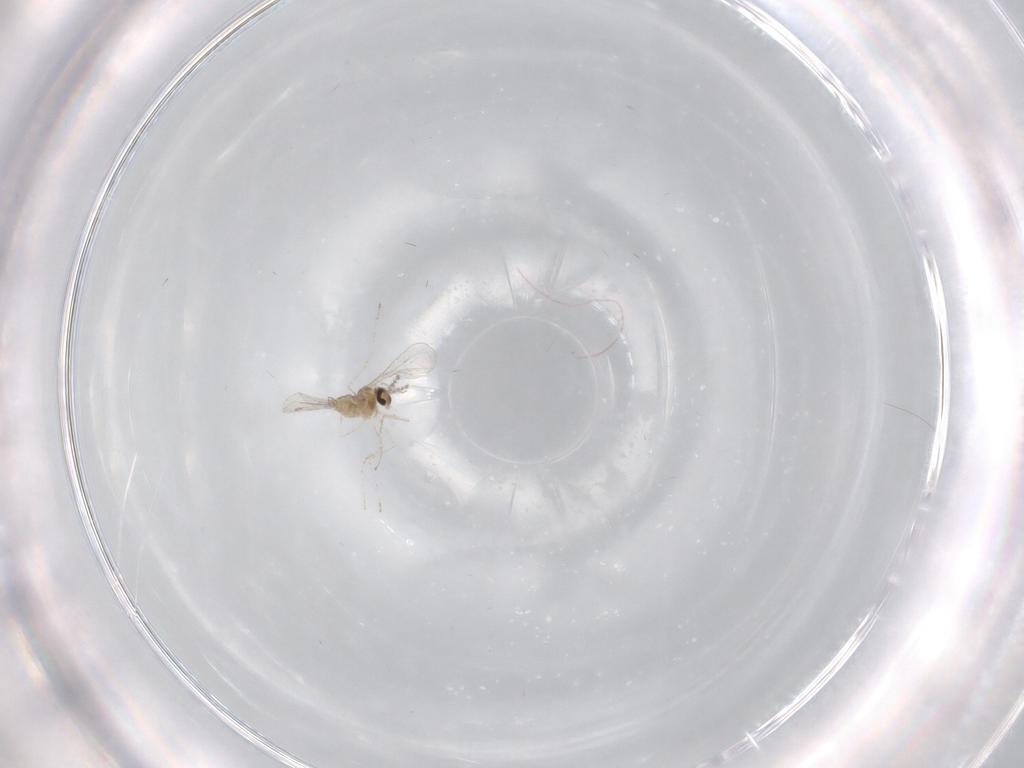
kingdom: Animalia
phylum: Arthropoda
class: Insecta
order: Diptera
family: Cecidomyiidae
